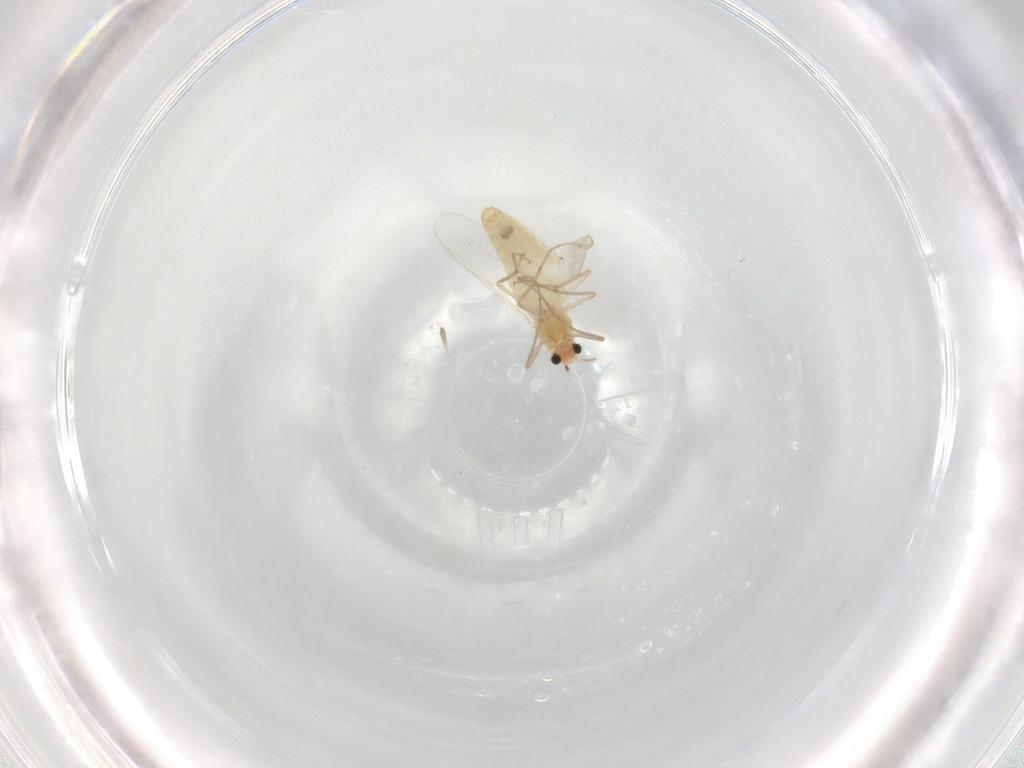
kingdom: Animalia
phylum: Arthropoda
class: Insecta
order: Diptera
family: Chironomidae
